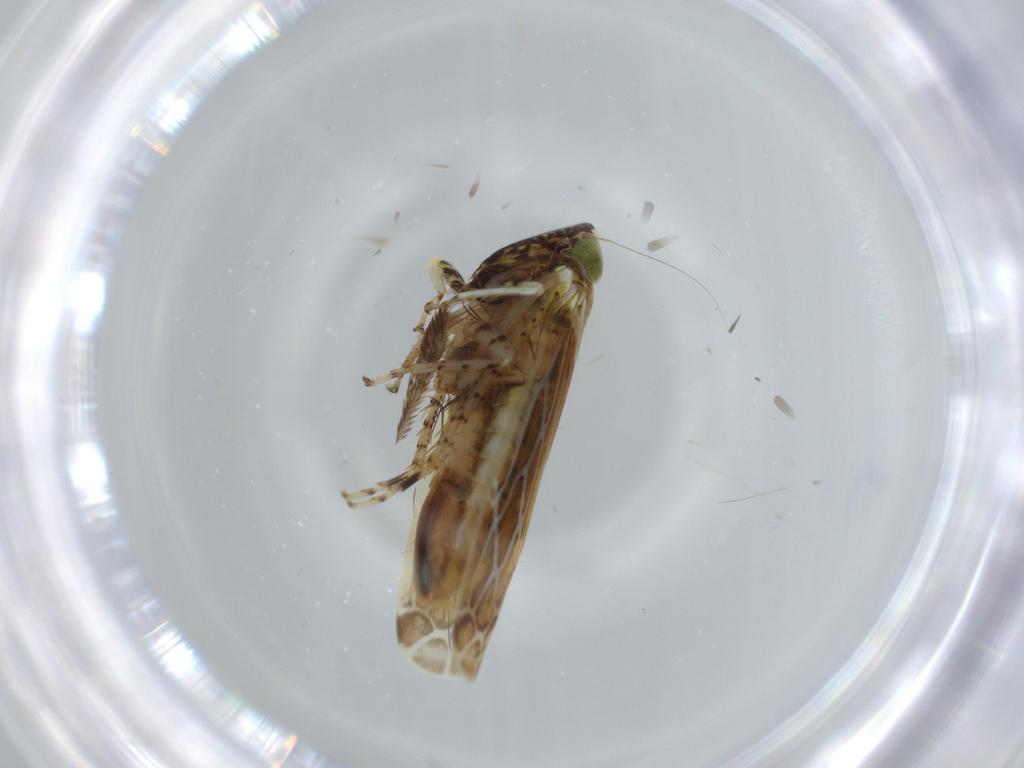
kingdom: Animalia
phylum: Arthropoda
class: Insecta
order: Hemiptera
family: Cicadellidae
